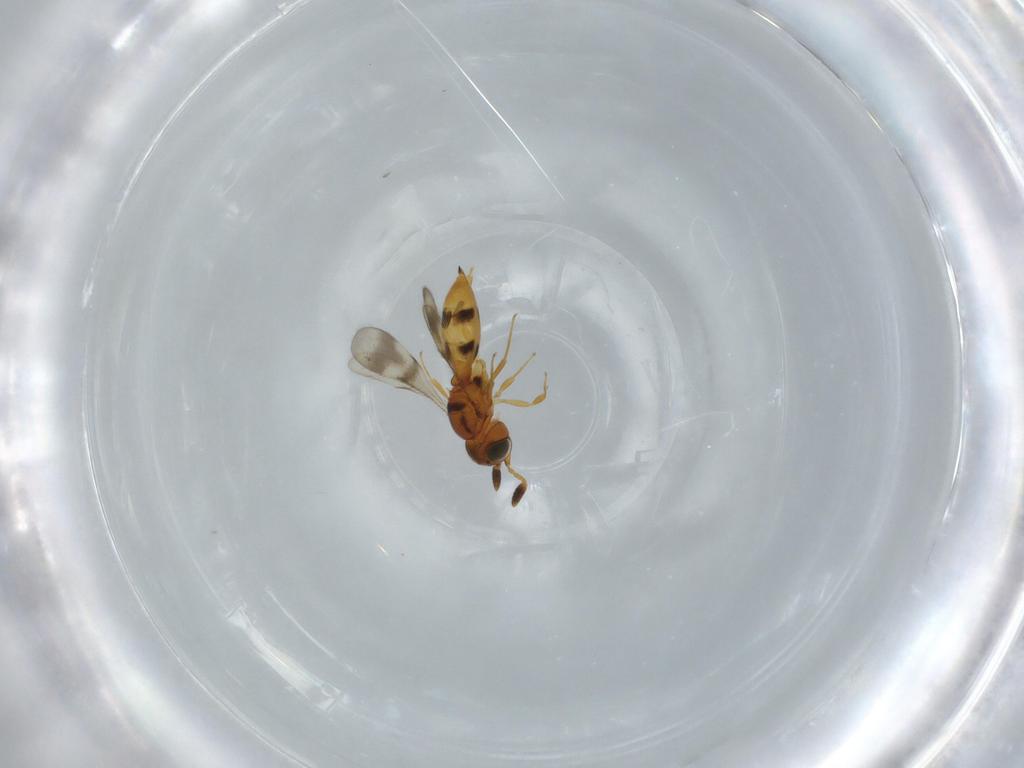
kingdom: Animalia
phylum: Arthropoda
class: Insecta
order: Hymenoptera
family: Scelionidae
